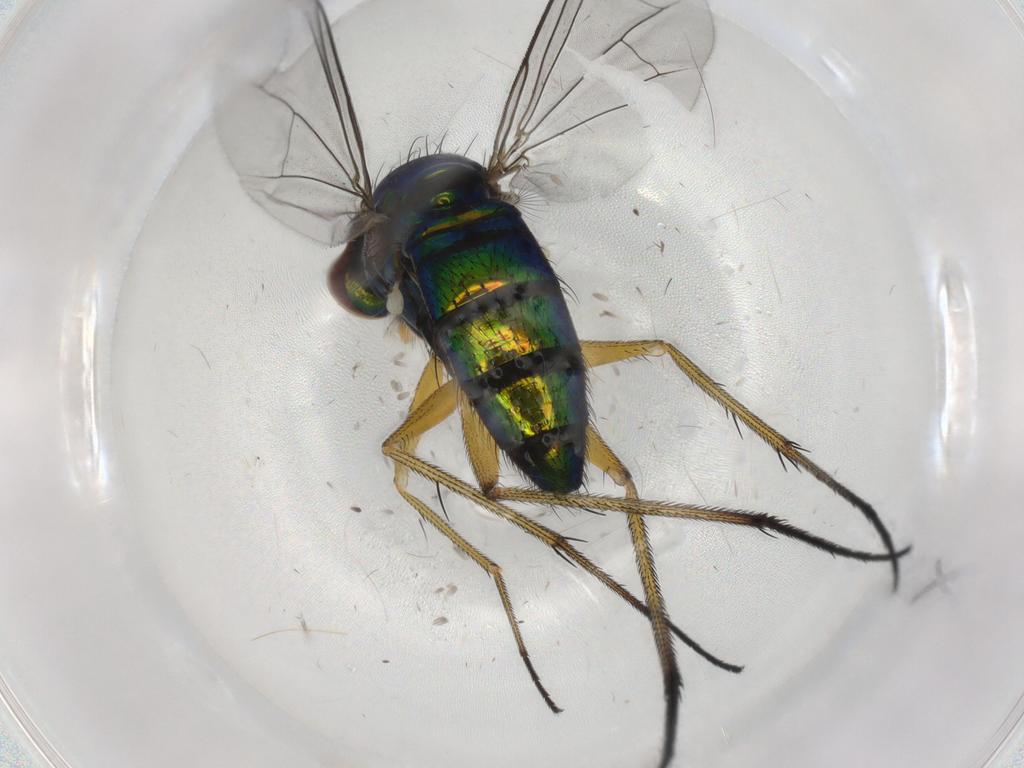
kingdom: Animalia
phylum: Arthropoda
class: Insecta
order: Diptera
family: Dolichopodidae
